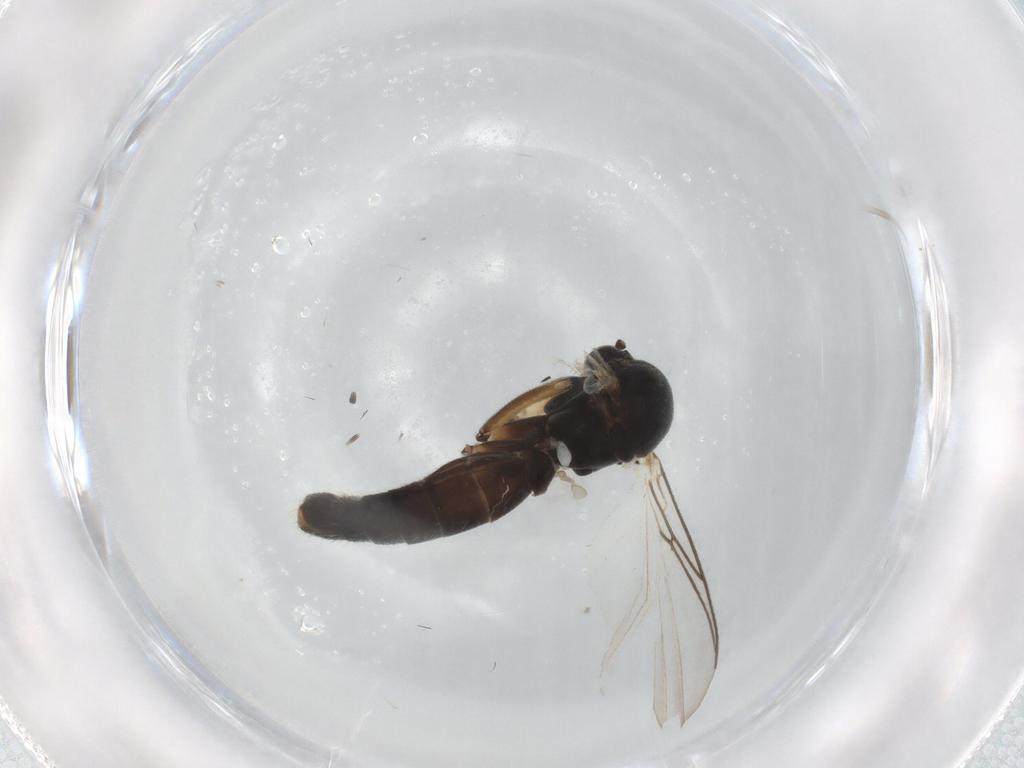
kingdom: Animalia
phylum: Arthropoda
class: Insecta
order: Diptera
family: Mycetophilidae
